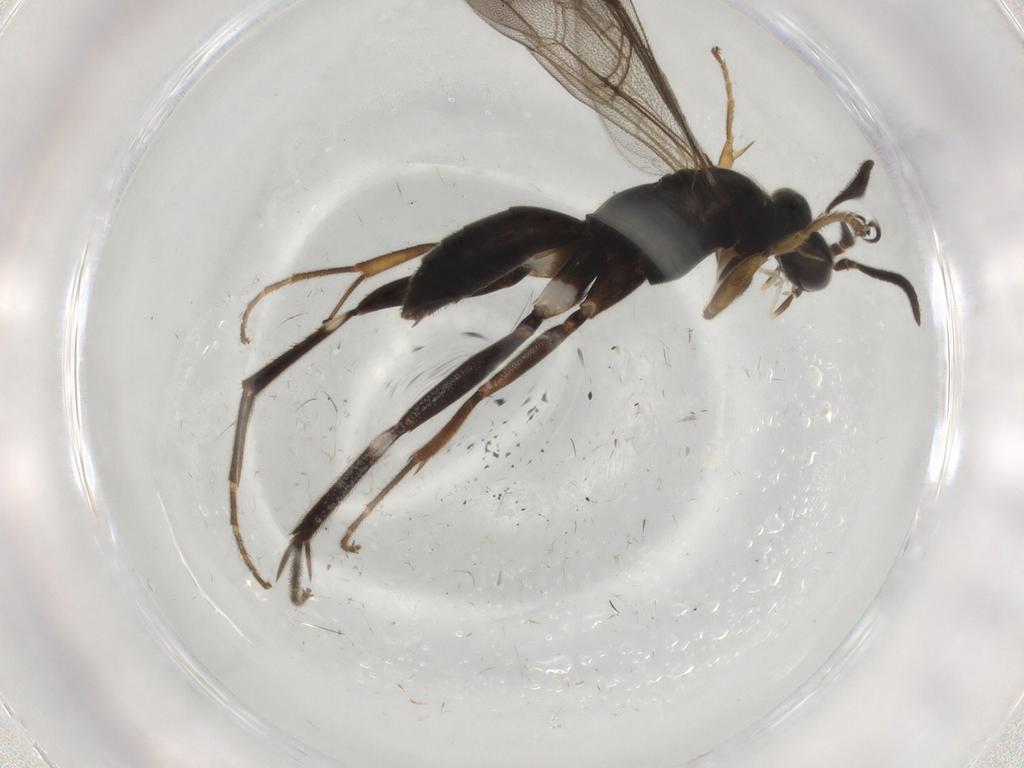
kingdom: Animalia
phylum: Arthropoda
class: Insecta
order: Hymenoptera
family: Pompilidae
